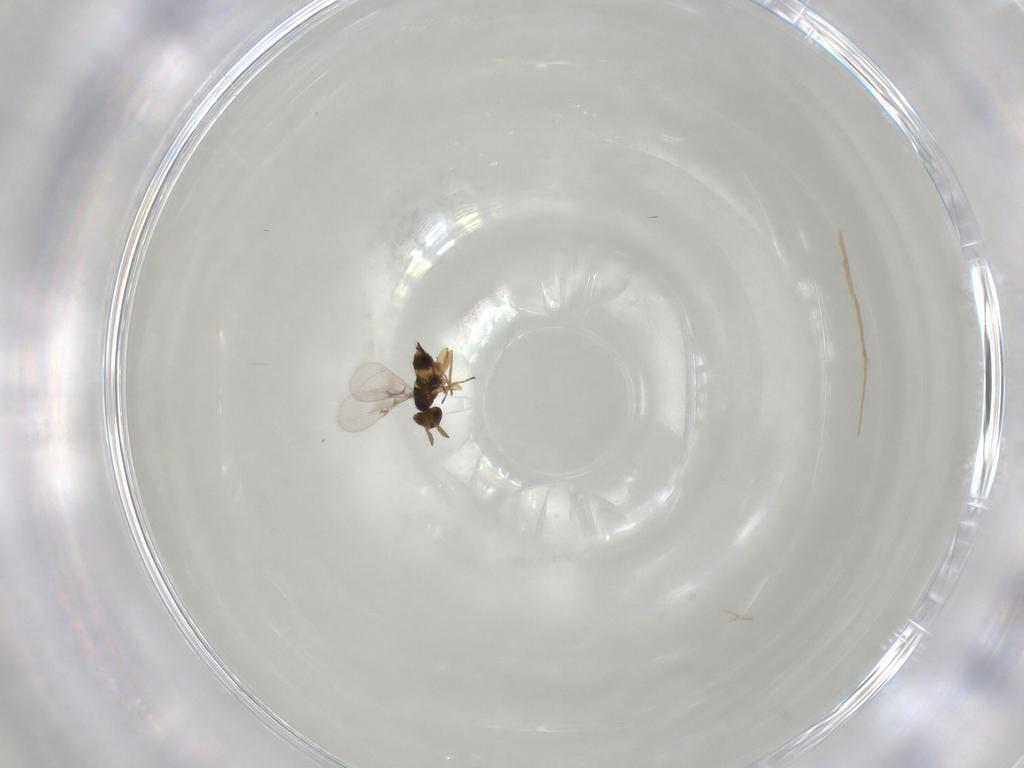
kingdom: Animalia
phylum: Arthropoda
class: Insecta
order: Hymenoptera
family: Eulophidae
